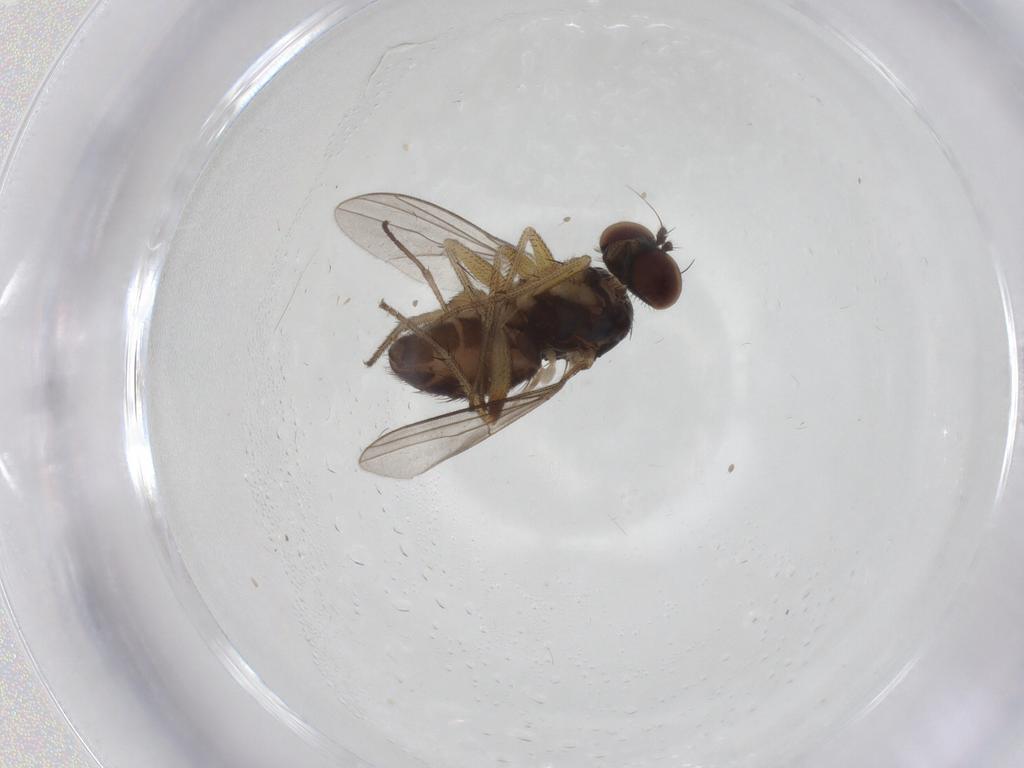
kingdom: Animalia
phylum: Arthropoda
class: Insecta
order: Diptera
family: Dolichopodidae
